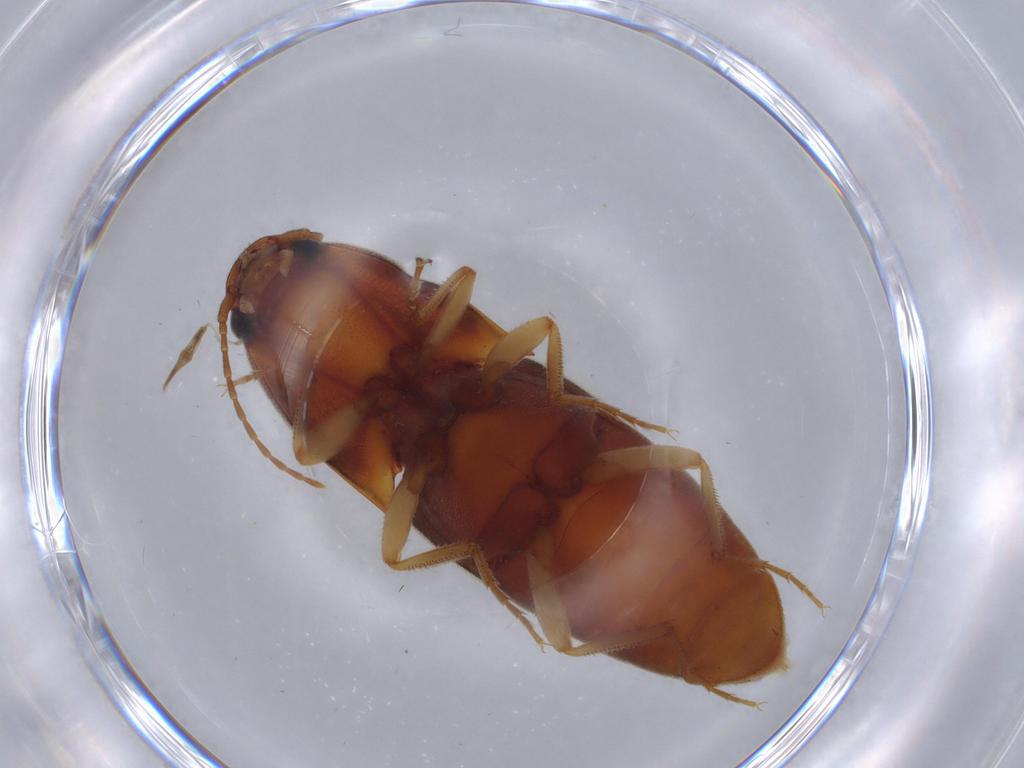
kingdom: Animalia
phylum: Arthropoda
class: Insecta
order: Coleoptera
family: Elateridae
